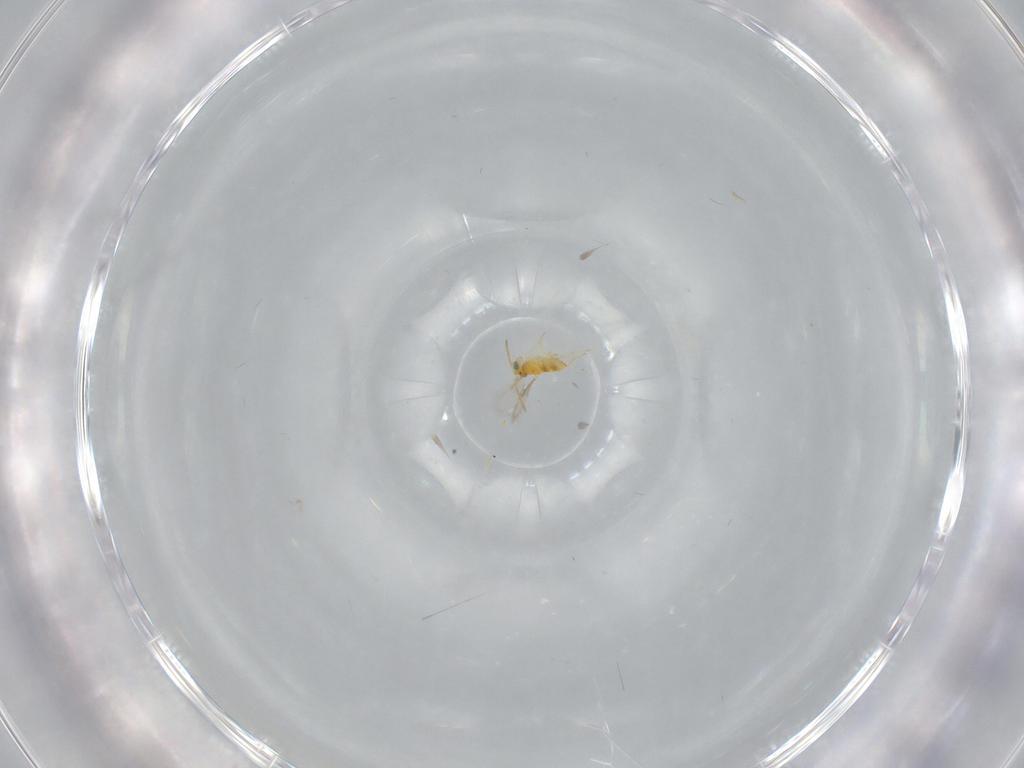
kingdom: Animalia
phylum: Arthropoda
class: Insecta
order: Hymenoptera
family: Aphelinidae
